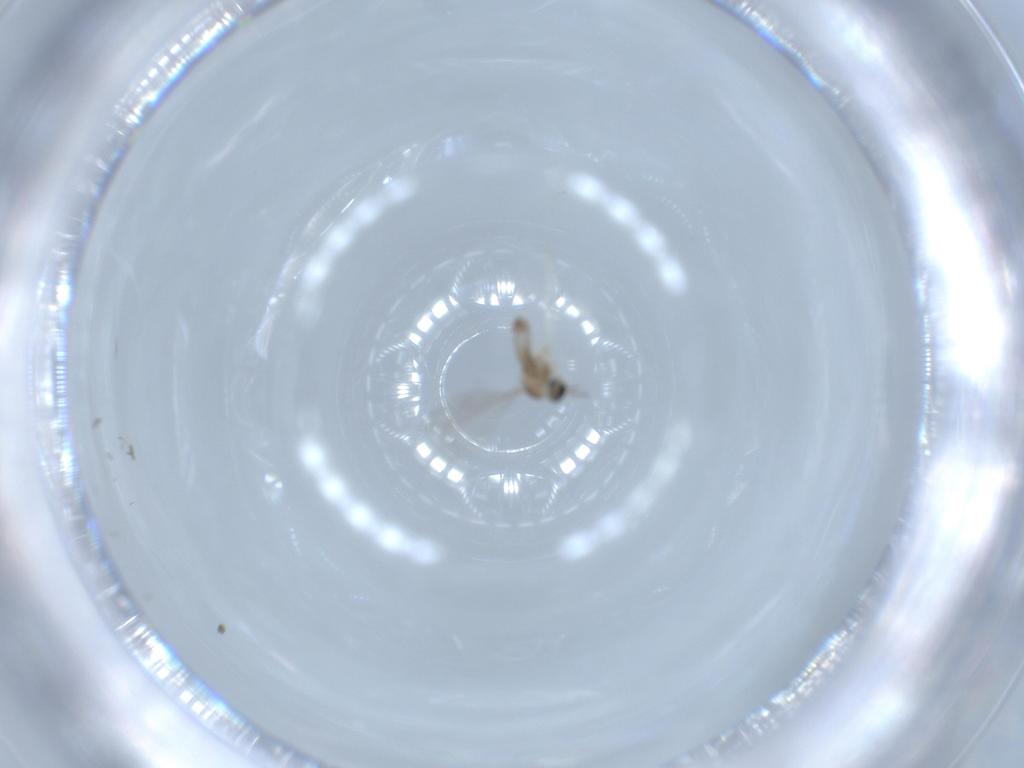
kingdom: Animalia
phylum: Arthropoda
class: Insecta
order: Diptera
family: Cecidomyiidae
